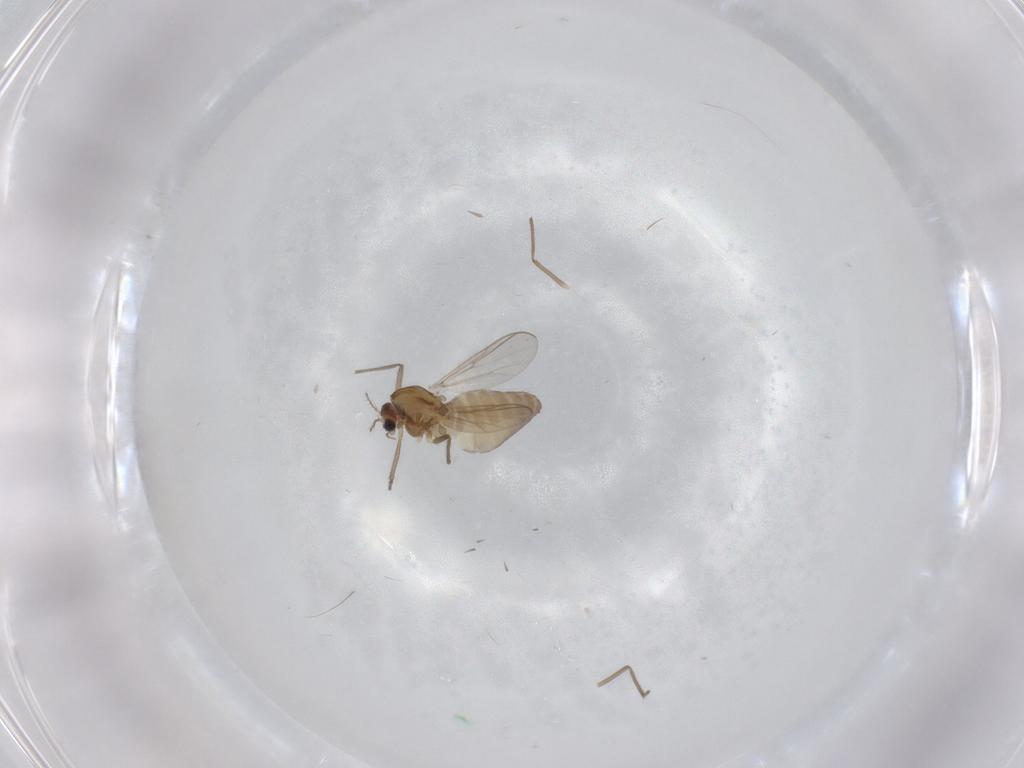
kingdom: Animalia
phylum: Arthropoda
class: Insecta
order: Diptera
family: Chironomidae
